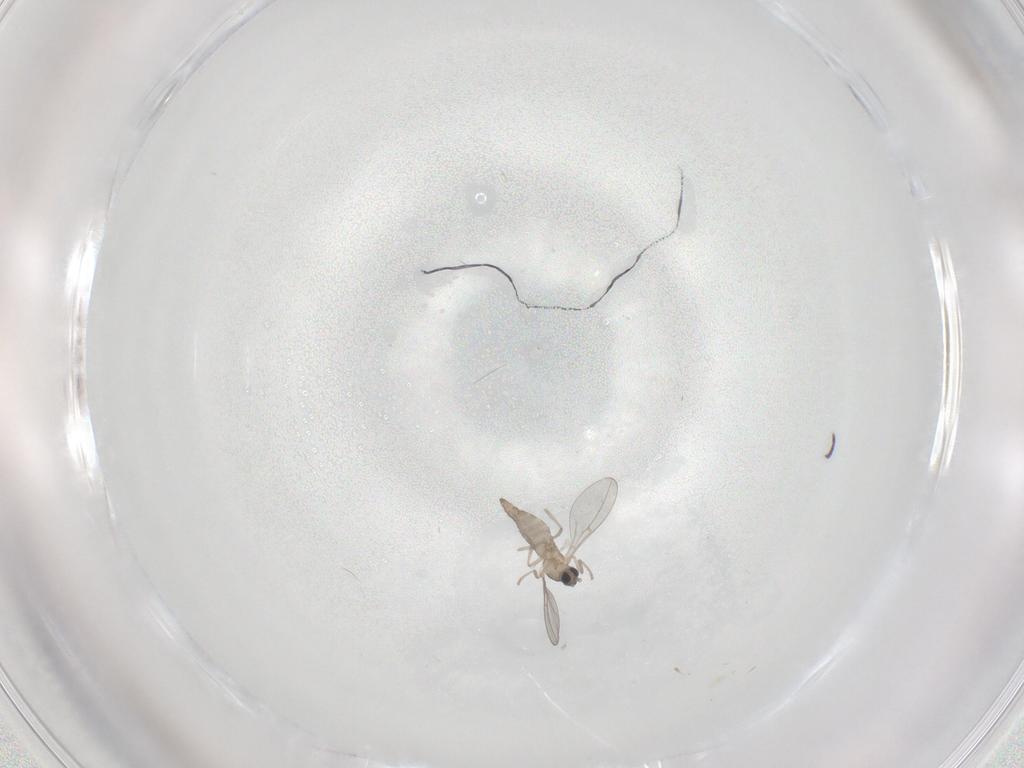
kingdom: Animalia
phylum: Arthropoda
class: Insecta
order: Diptera
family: Cecidomyiidae
